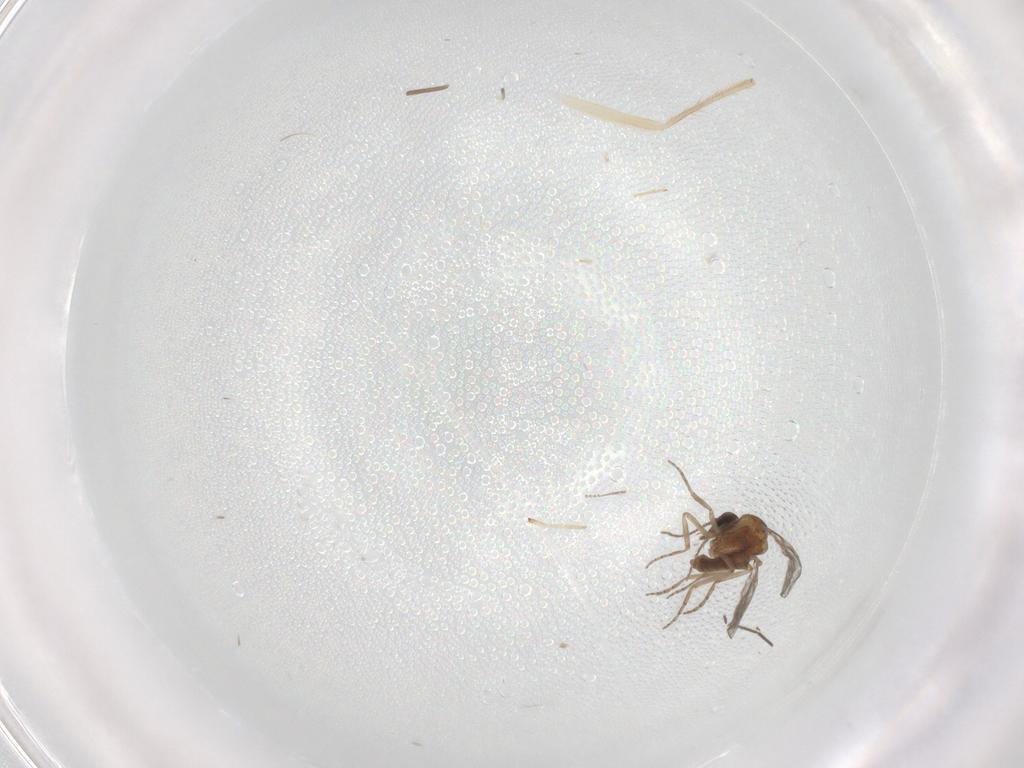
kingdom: Animalia
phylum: Arthropoda
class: Insecta
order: Diptera
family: Chironomidae
